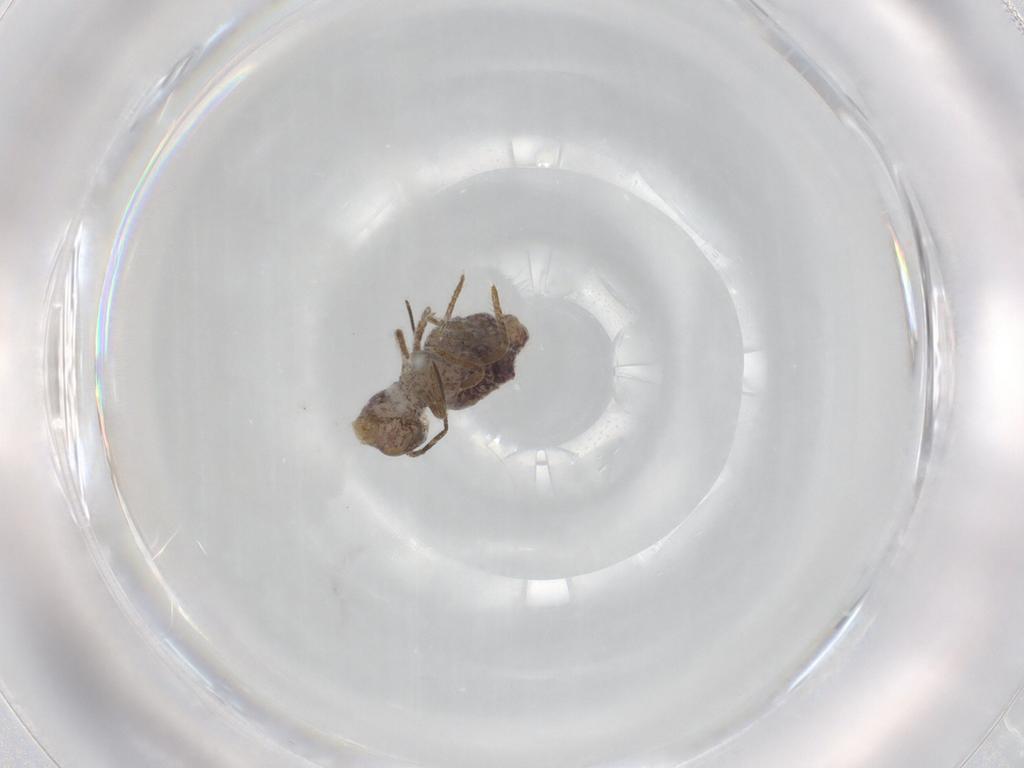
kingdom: Animalia
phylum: Arthropoda
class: Collembola
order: Symphypleona
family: Sminthuridae
